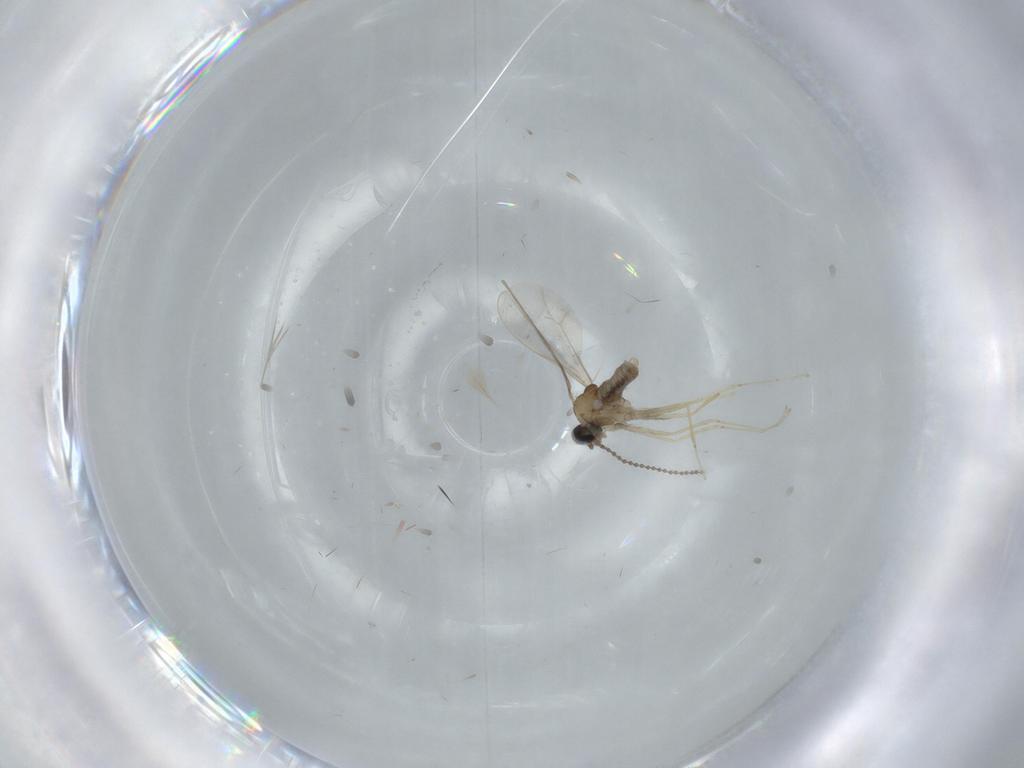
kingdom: Animalia
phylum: Arthropoda
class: Insecta
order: Diptera
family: Cecidomyiidae
